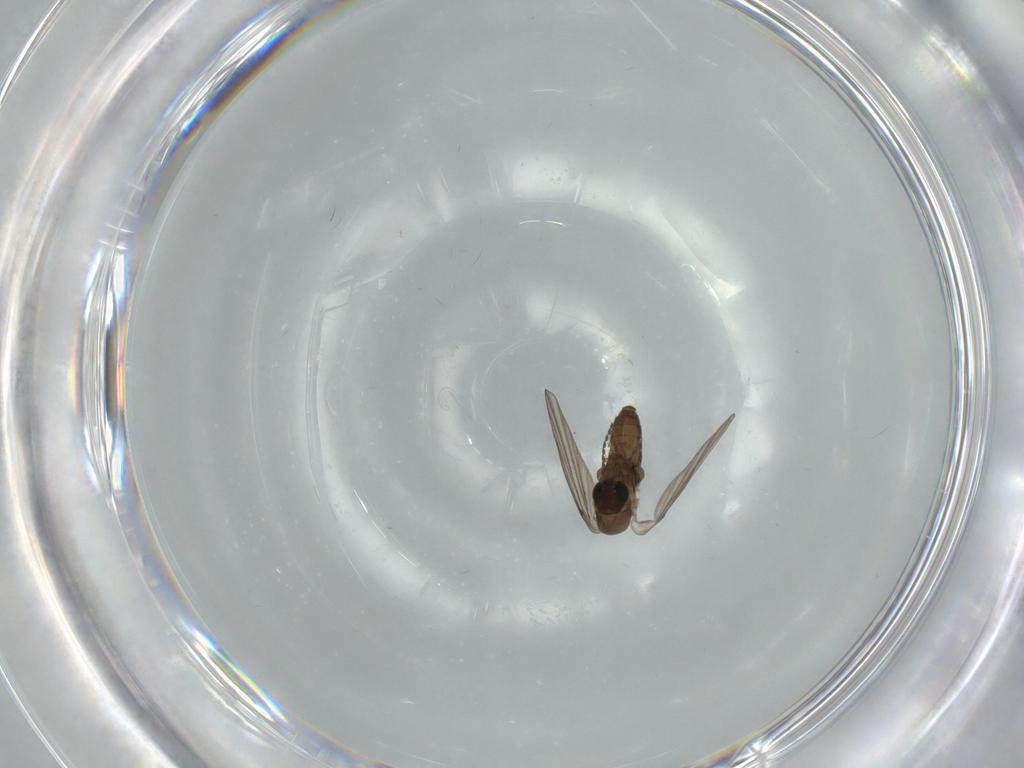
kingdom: Animalia
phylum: Arthropoda
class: Insecta
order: Diptera
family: Psychodidae
